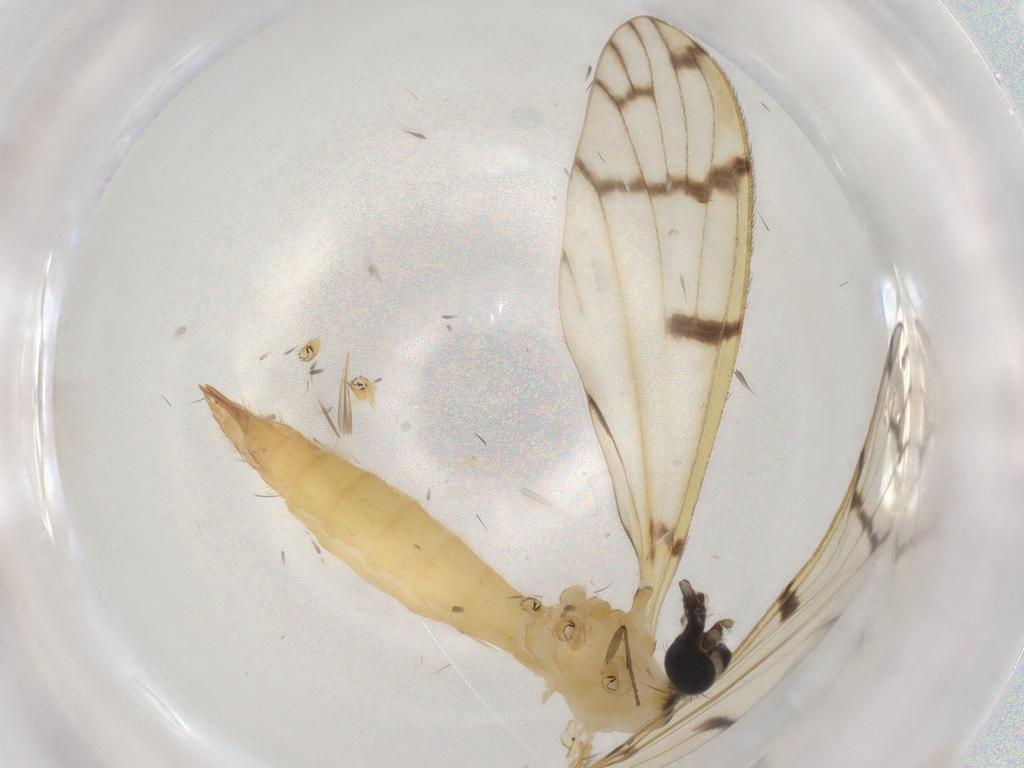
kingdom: Animalia
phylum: Arthropoda
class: Insecta
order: Diptera
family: Limoniidae
